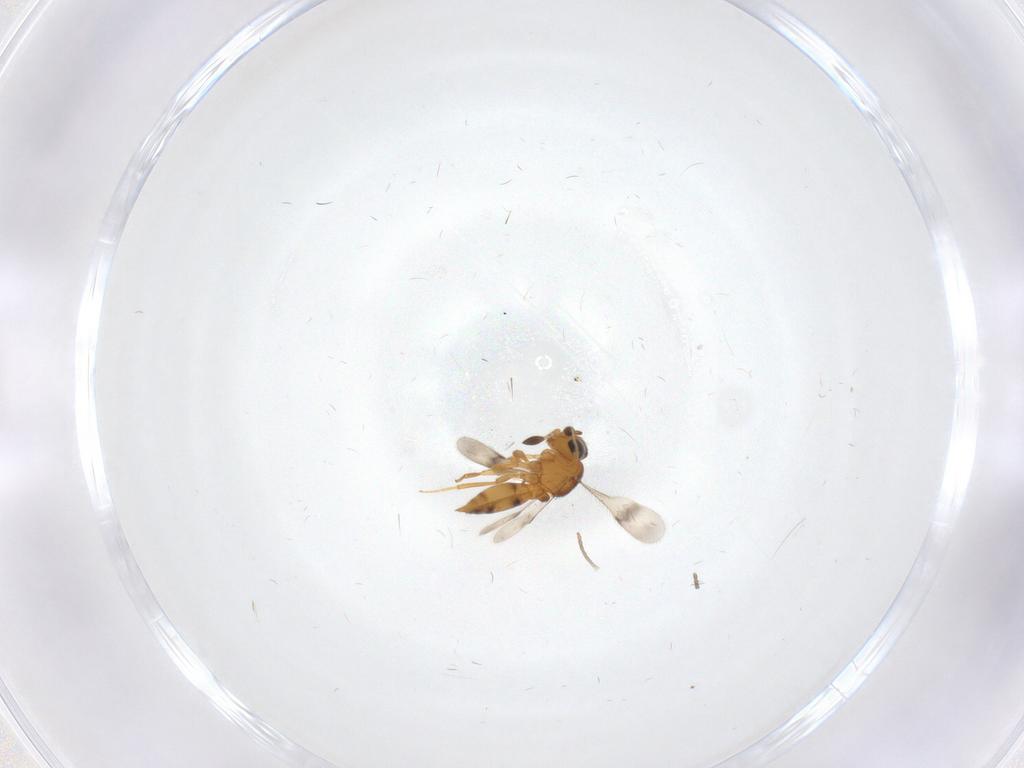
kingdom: Animalia
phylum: Arthropoda
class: Insecta
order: Hymenoptera
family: Scelionidae
